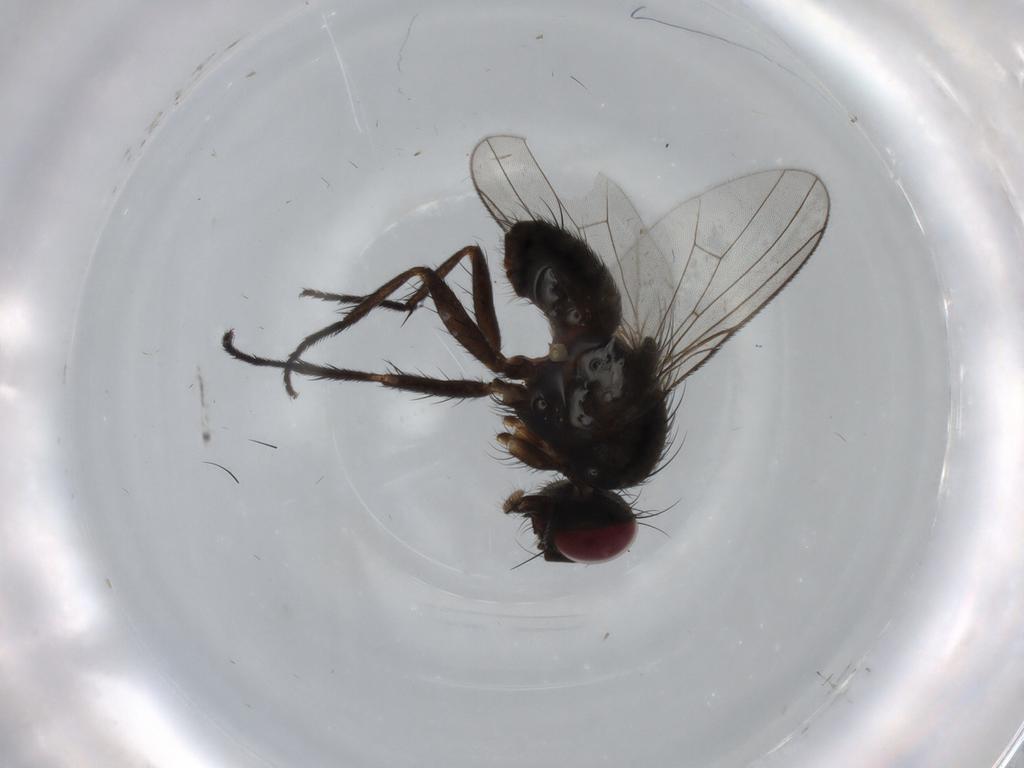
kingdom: Animalia
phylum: Arthropoda
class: Insecta
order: Diptera
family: Muscidae
